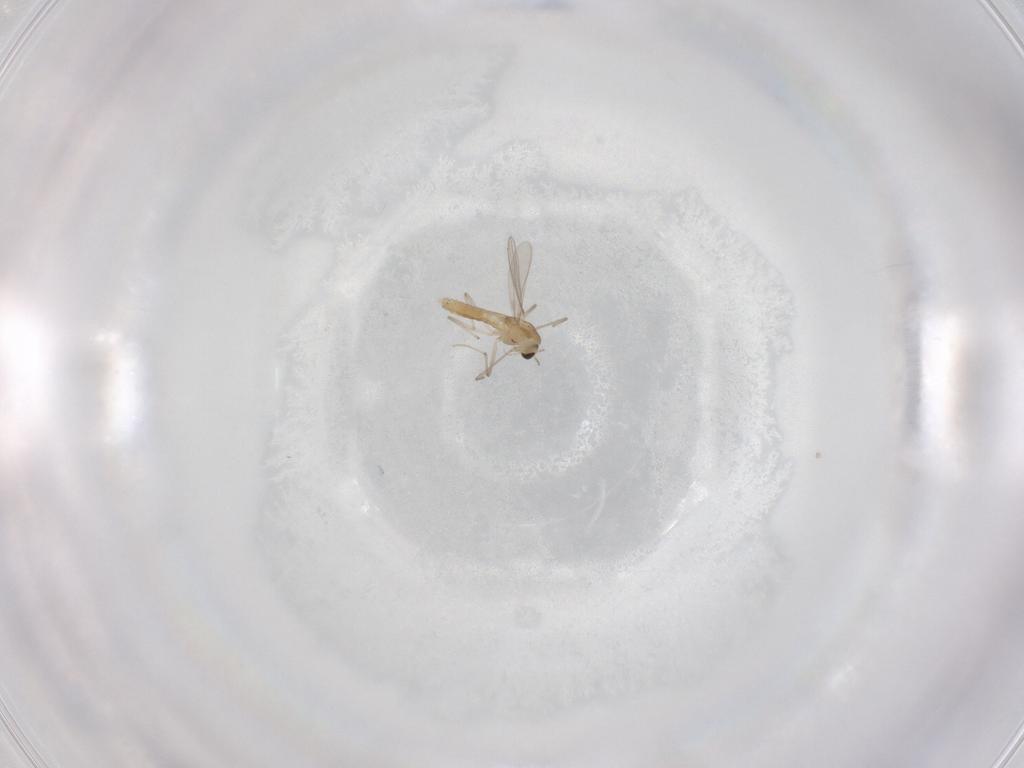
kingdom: Animalia
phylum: Arthropoda
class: Insecta
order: Diptera
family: Chironomidae
